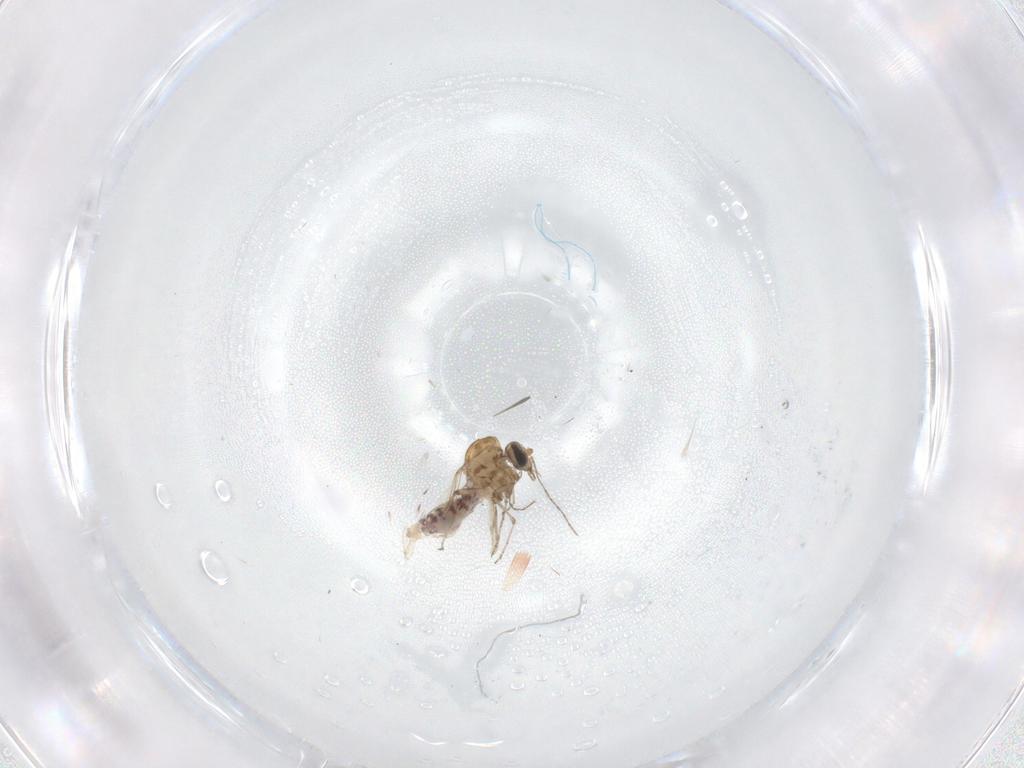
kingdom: Animalia
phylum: Arthropoda
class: Insecta
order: Diptera
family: Ceratopogonidae
